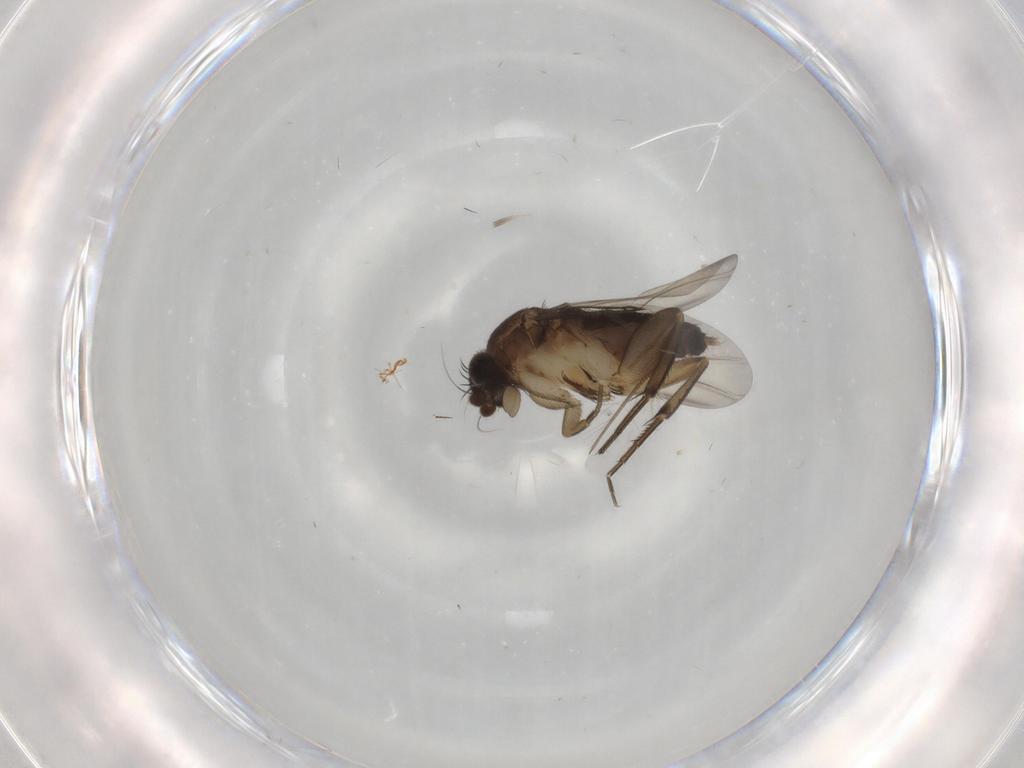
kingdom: Animalia
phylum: Arthropoda
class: Insecta
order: Diptera
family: Phoridae
